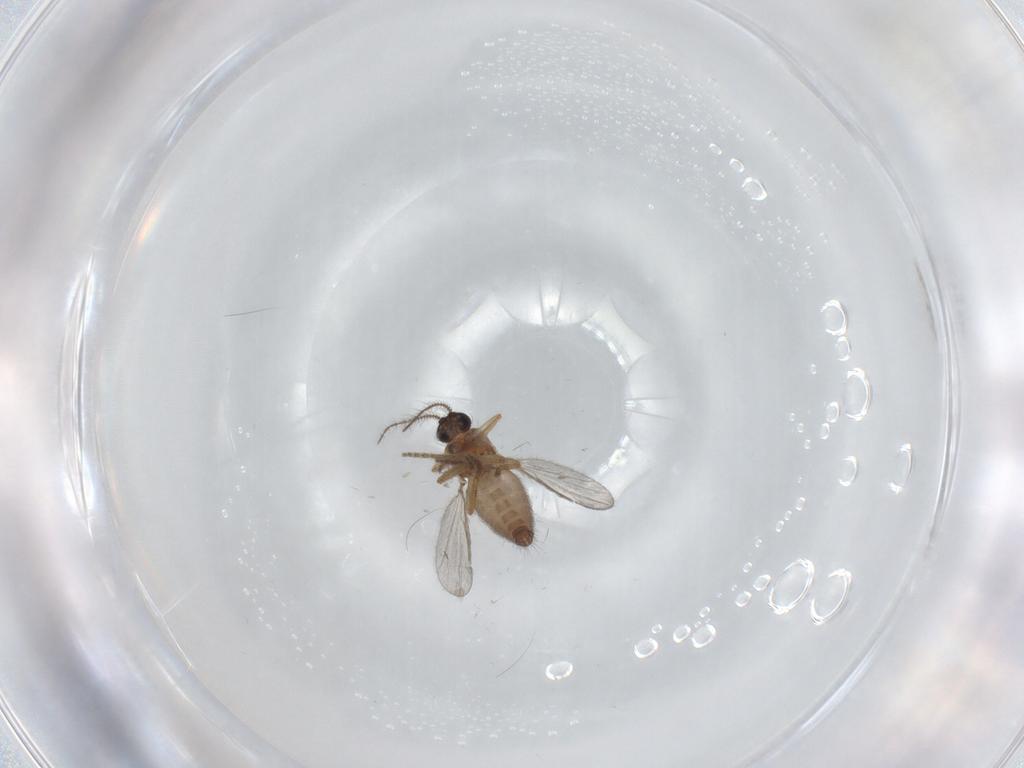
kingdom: Animalia
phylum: Arthropoda
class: Insecta
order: Diptera
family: Ceratopogonidae
